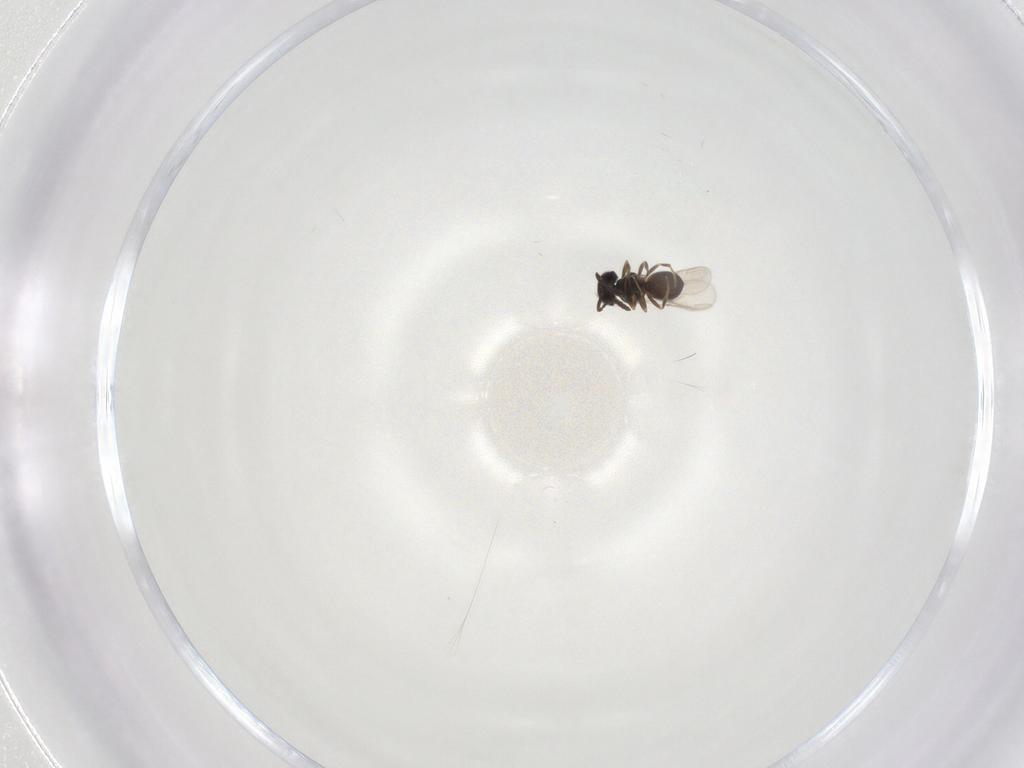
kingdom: Animalia
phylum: Arthropoda
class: Insecta
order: Hymenoptera
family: Scelionidae
